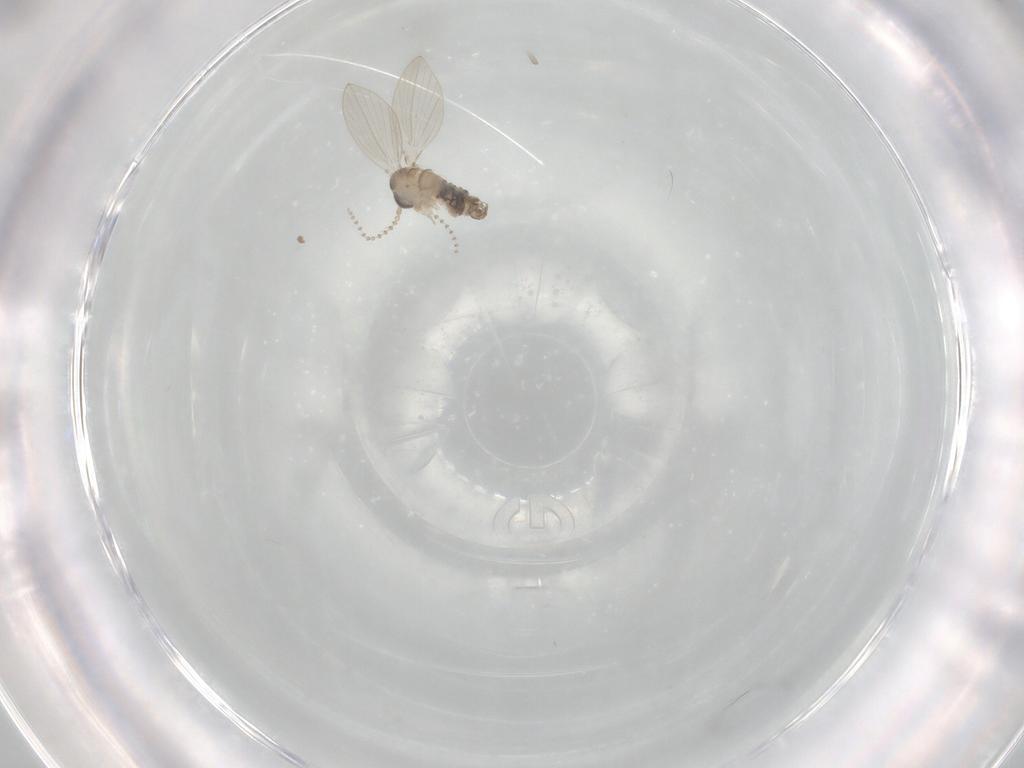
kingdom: Animalia
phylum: Arthropoda
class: Insecta
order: Diptera
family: Psychodidae
